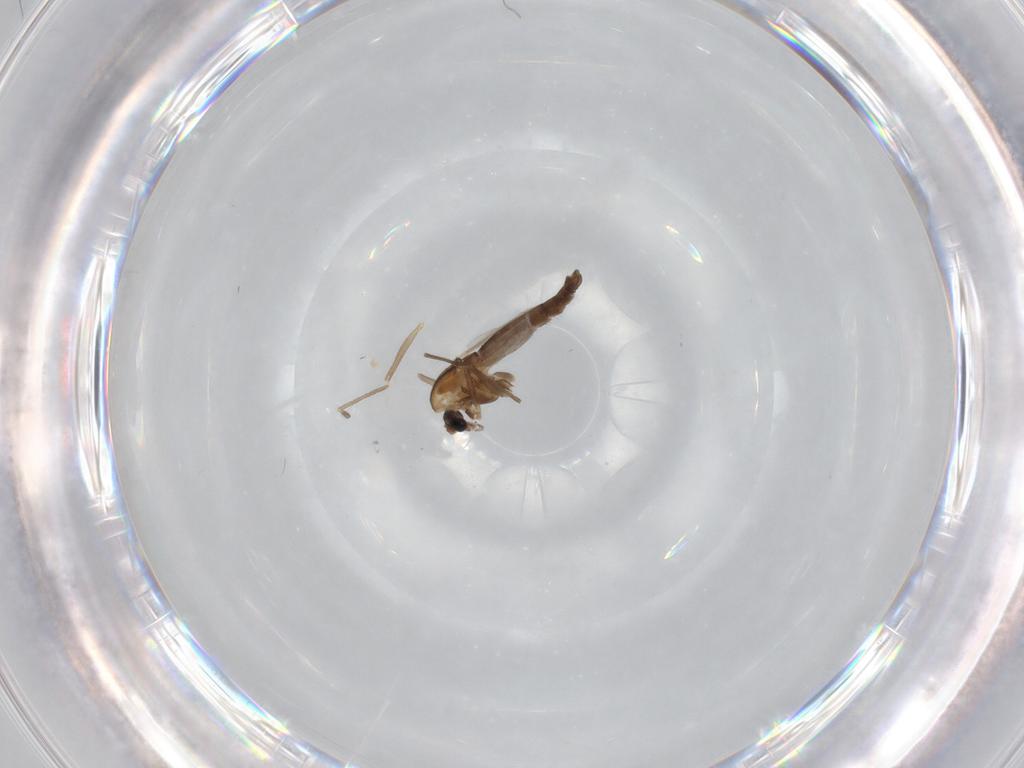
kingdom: Animalia
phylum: Arthropoda
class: Insecta
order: Diptera
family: Chironomidae
